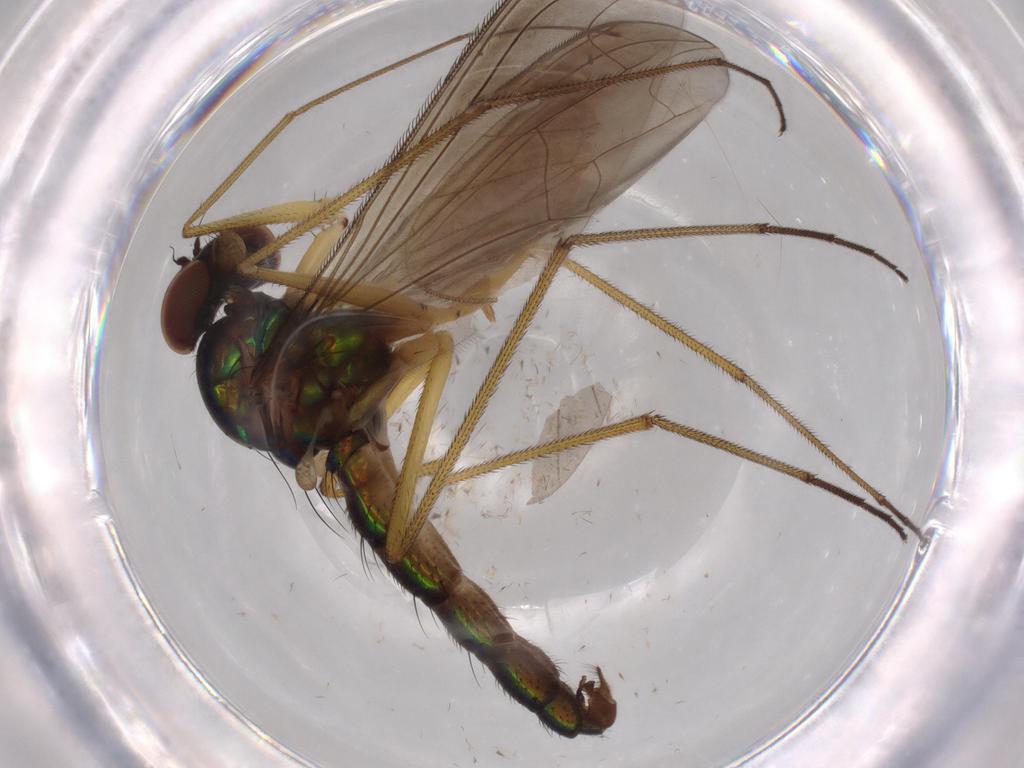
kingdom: Animalia
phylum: Arthropoda
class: Insecta
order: Diptera
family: Dolichopodidae
